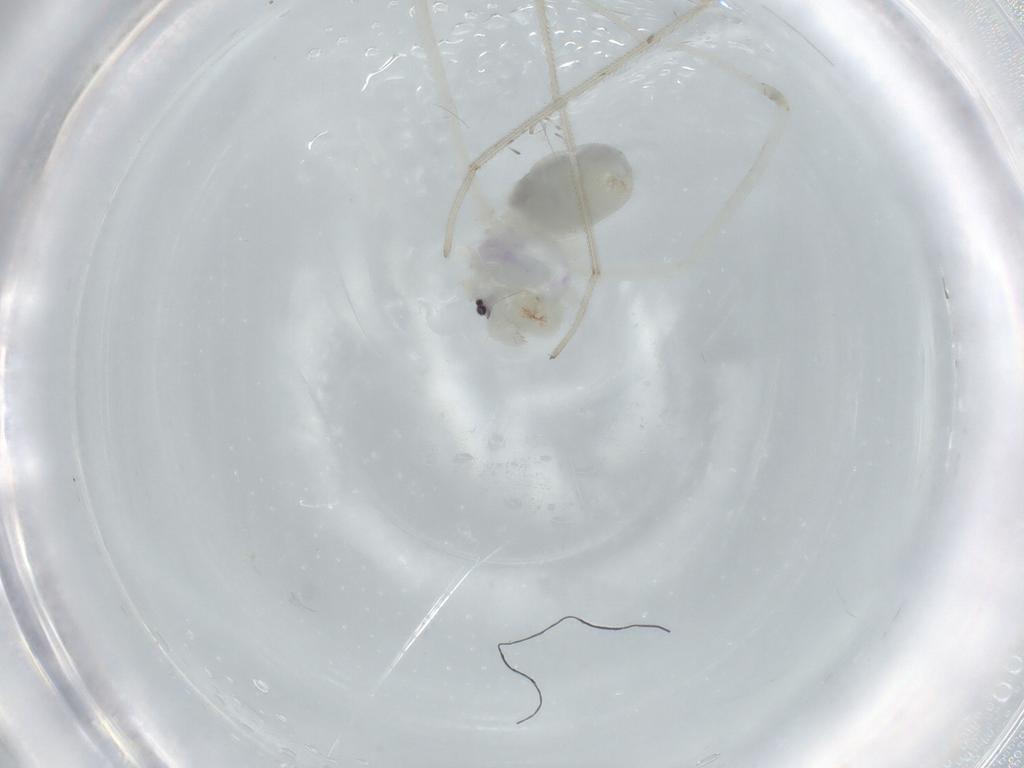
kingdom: Animalia
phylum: Arthropoda
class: Arachnida
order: Araneae
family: Pholcidae
